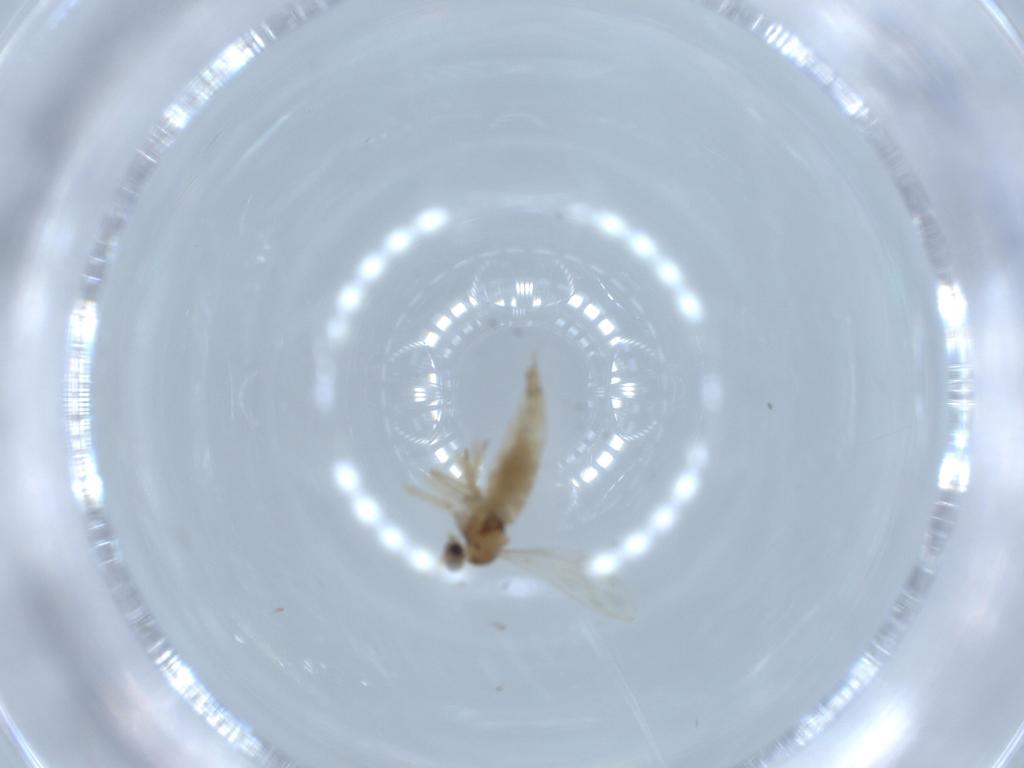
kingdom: Animalia
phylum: Arthropoda
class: Insecta
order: Diptera
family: Cecidomyiidae
